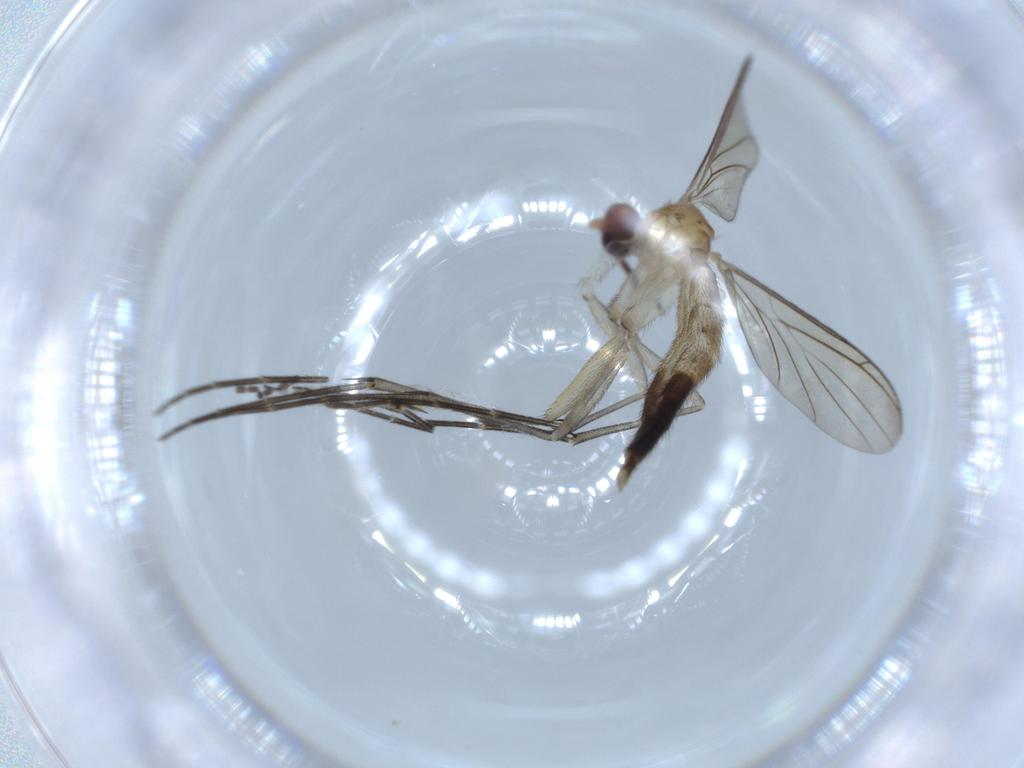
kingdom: Animalia
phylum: Arthropoda
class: Insecta
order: Diptera
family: Keroplatidae
